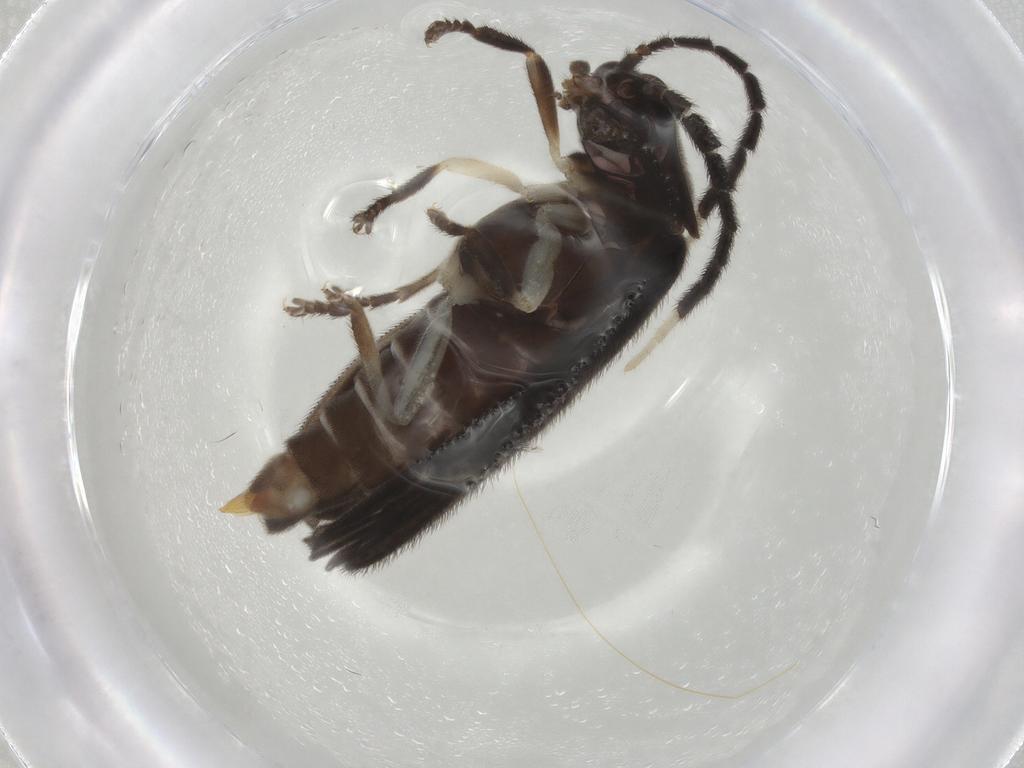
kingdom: Animalia
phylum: Arthropoda
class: Insecta
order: Coleoptera
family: Lampyridae
